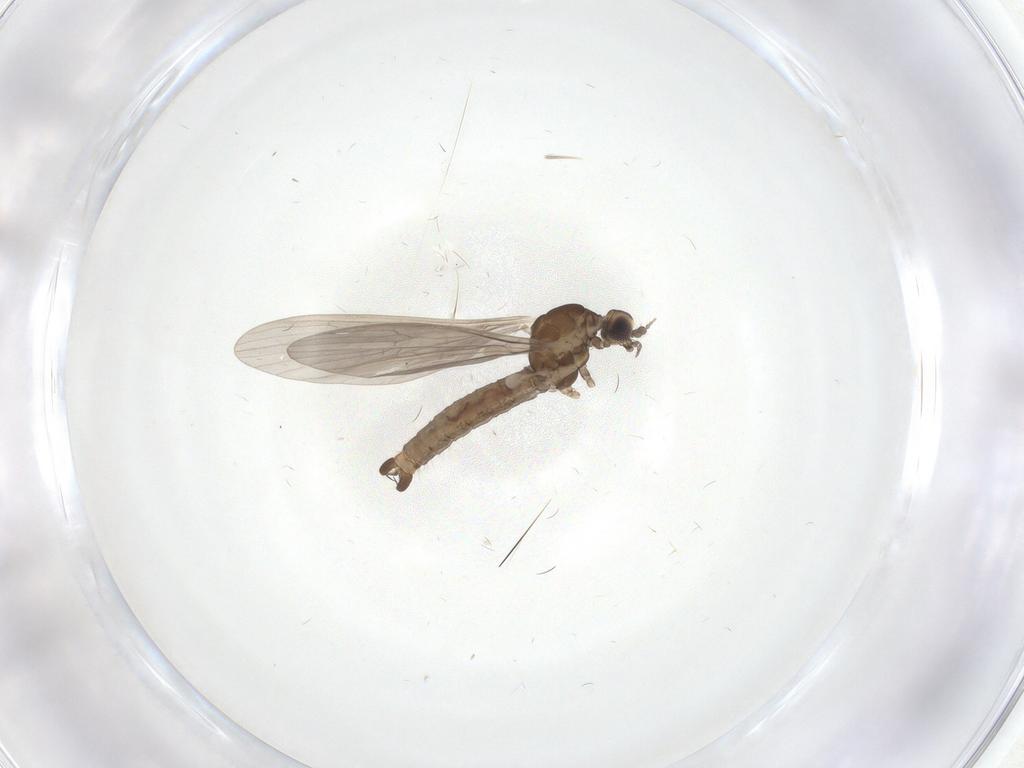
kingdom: Animalia
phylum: Arthropoda
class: Insecta
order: Diptera
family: Limoniidae
